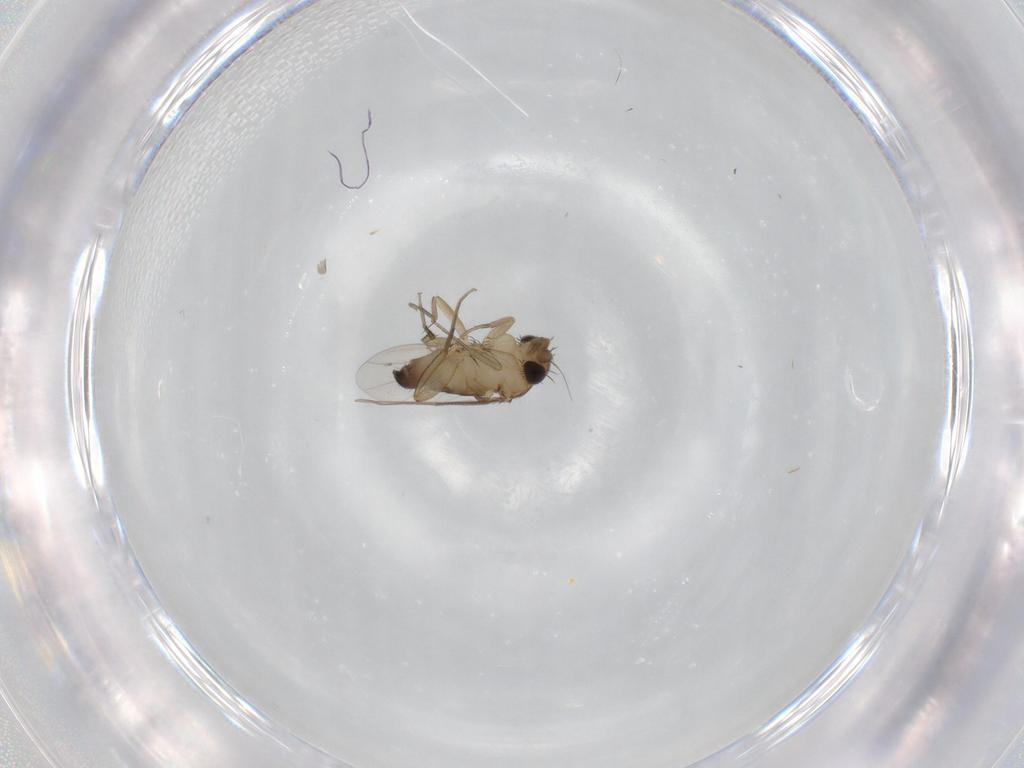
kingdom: Animalia
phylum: Arthropoda
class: Insecta
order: Diptera
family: Phoridae
